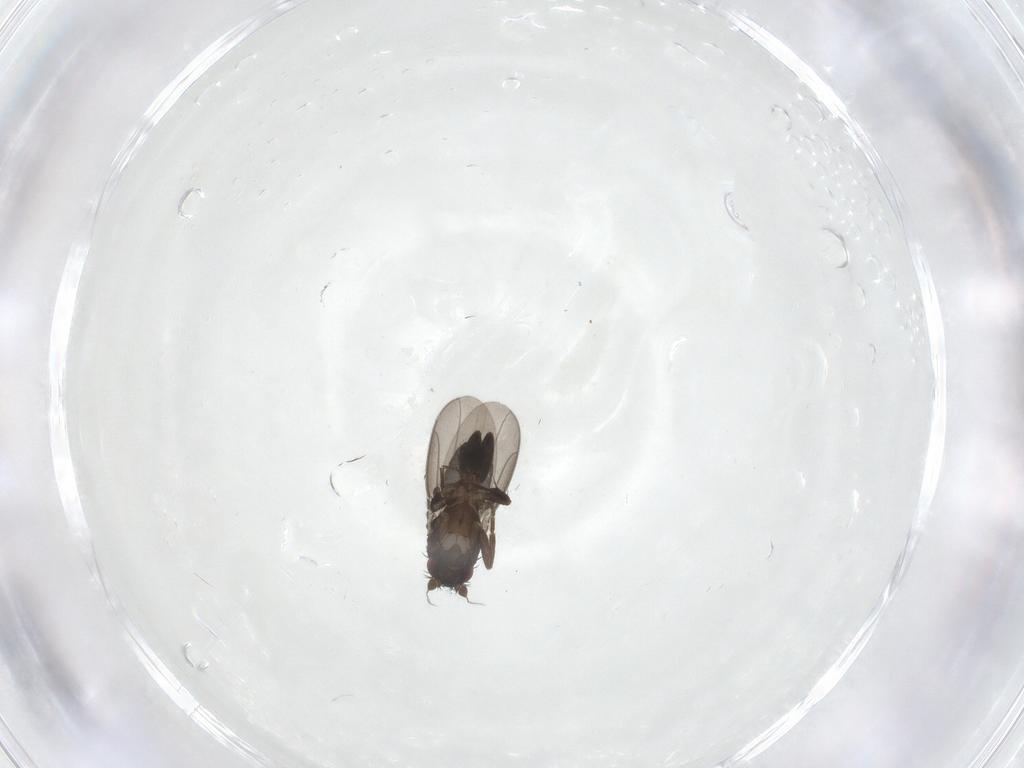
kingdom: Animalia
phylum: Arthropoda
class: Insecta
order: Diptera
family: Sphaeroceridae
